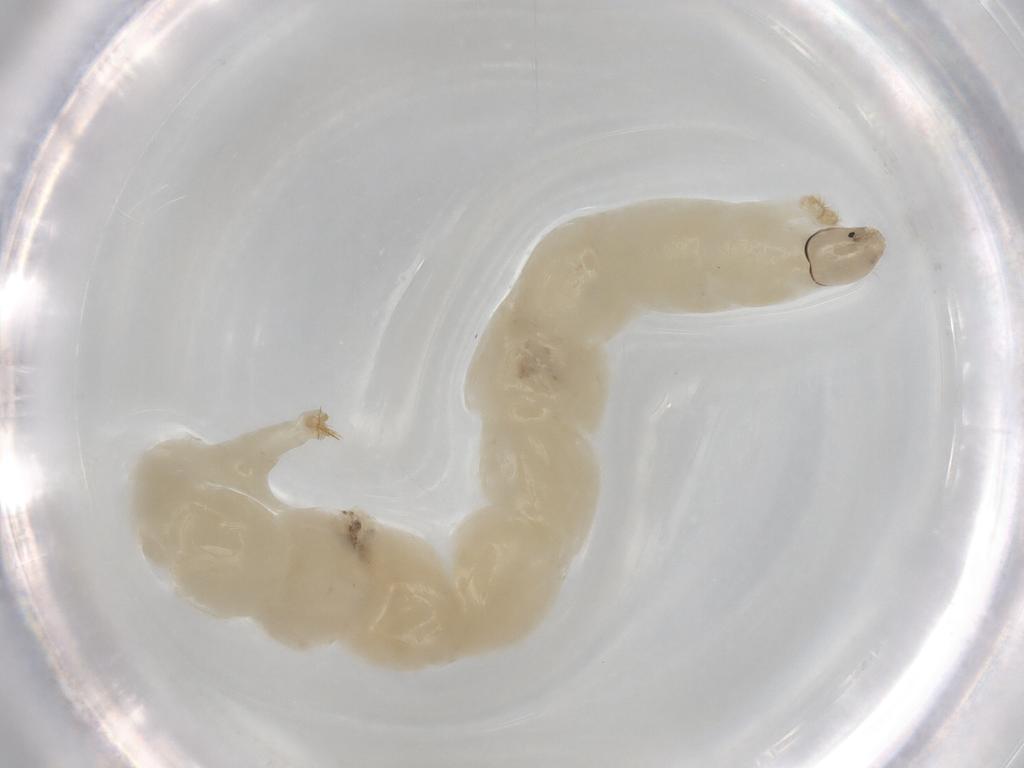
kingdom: Animalia
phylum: Arthropoda
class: Insecta
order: Diptera
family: Chironomidae
